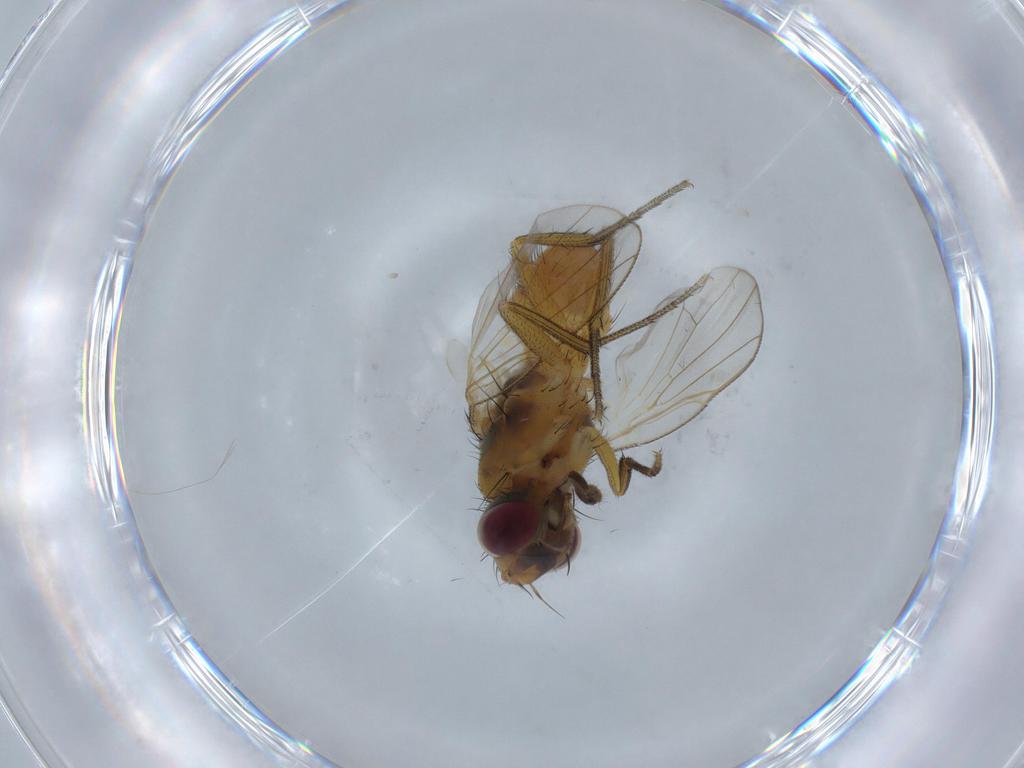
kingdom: Animalia
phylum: Arthropoda
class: Insecta
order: Diptera
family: Muscidae
